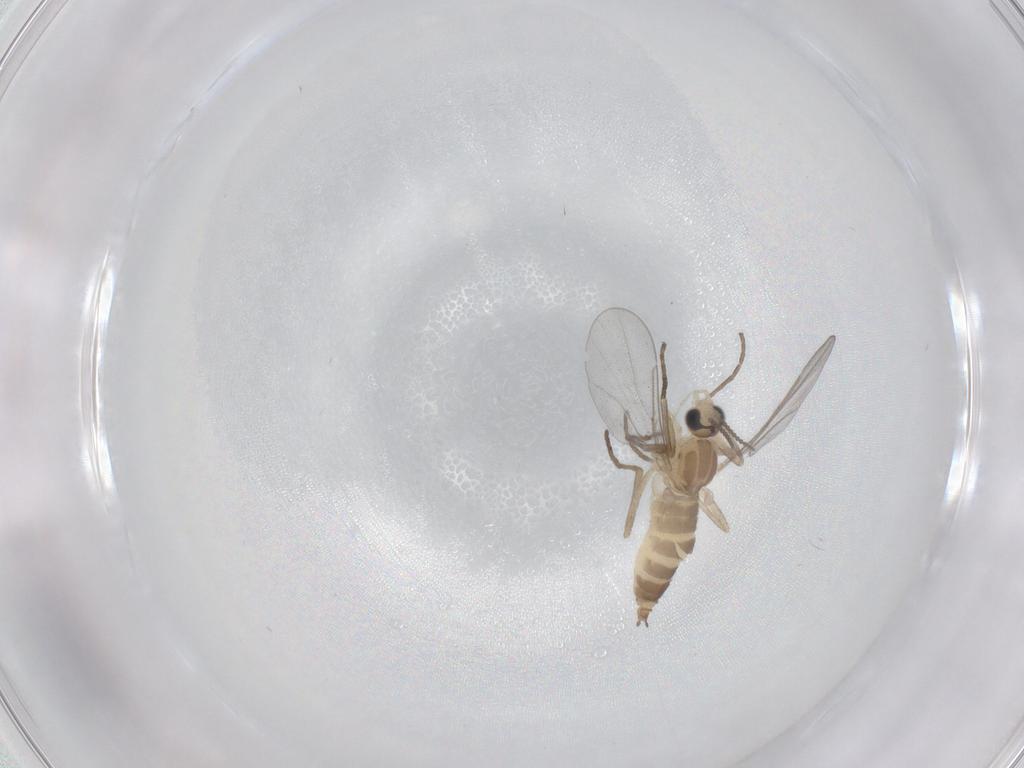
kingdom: Animalia
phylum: Arthropoda
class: Insecta
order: Diptera
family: Cecidomyiidae
